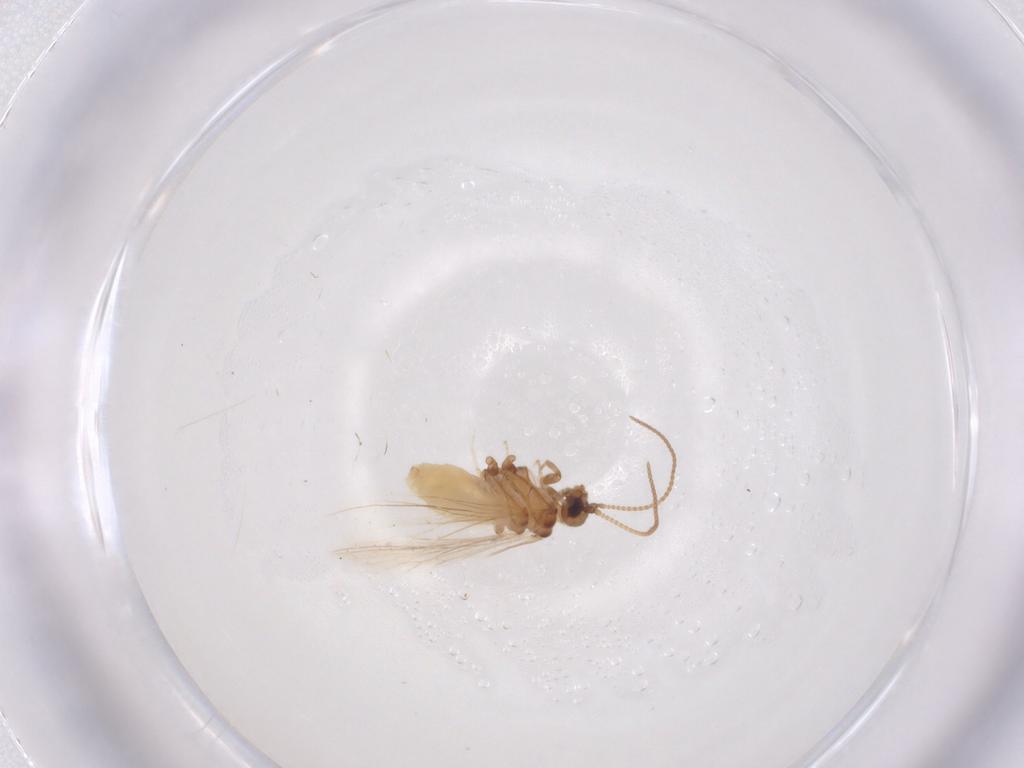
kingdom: Animalia
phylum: Arthropoda
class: Insecta
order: Neuroptera
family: Coniopterygidae
